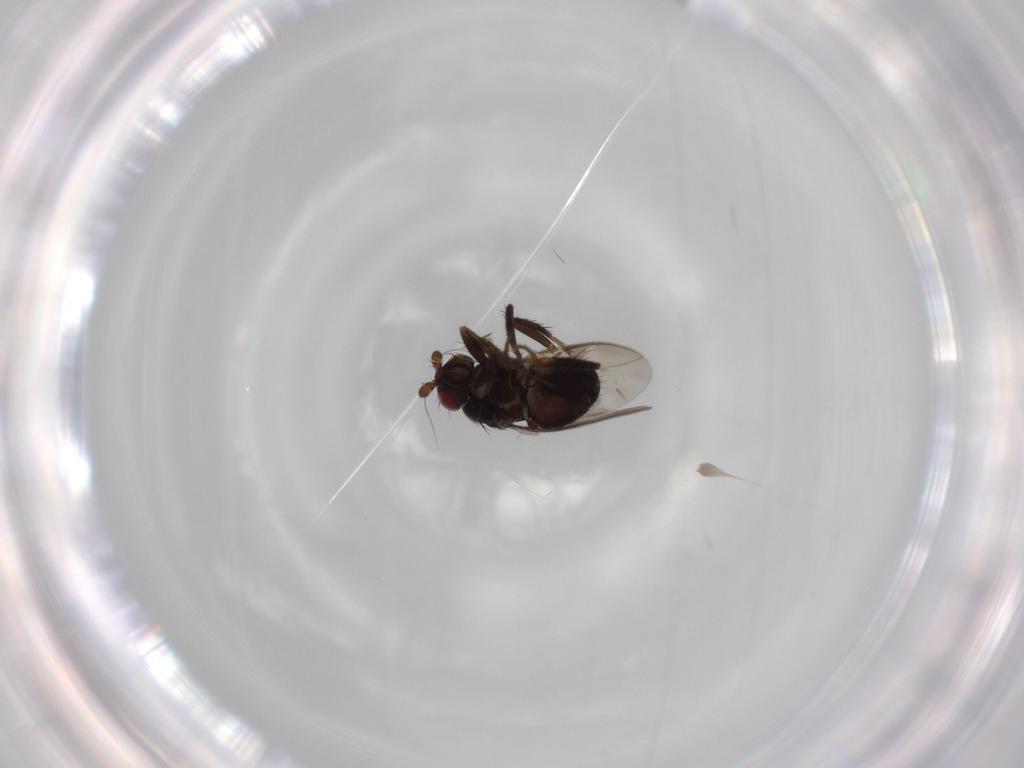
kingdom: Animalia
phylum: Arthropoda
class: Insecta
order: Diptera
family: Sphaeroceridae
